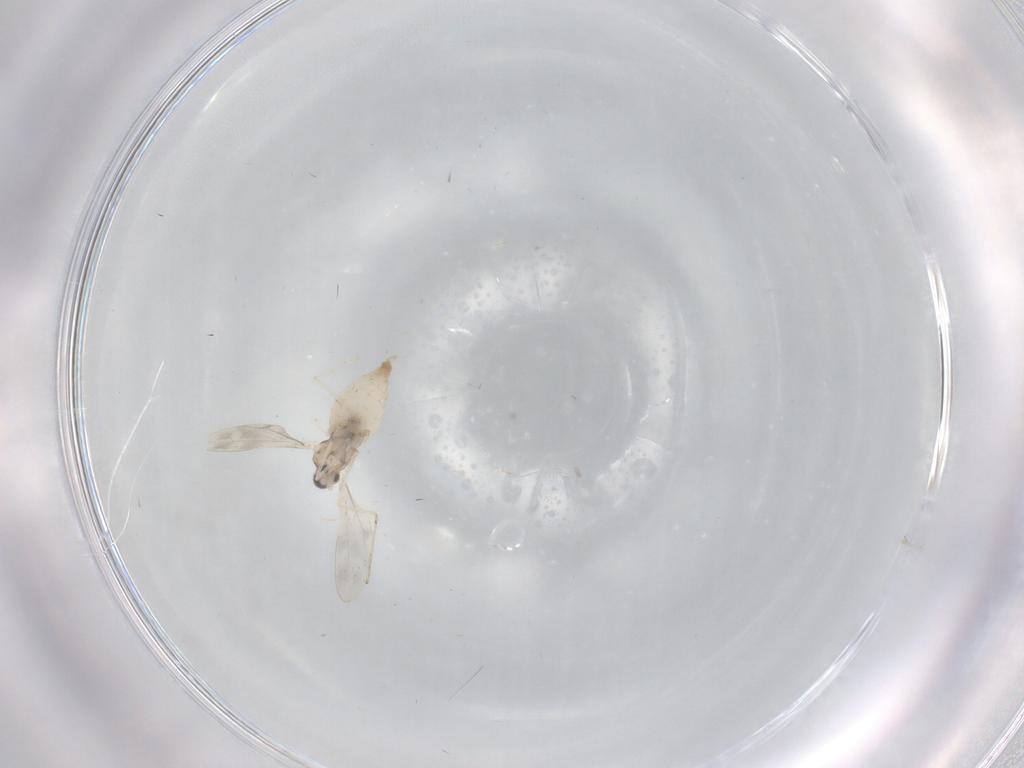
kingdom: Animalia
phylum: Arthropoda
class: Insecta
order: Diptera
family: Cecidomyiidae
